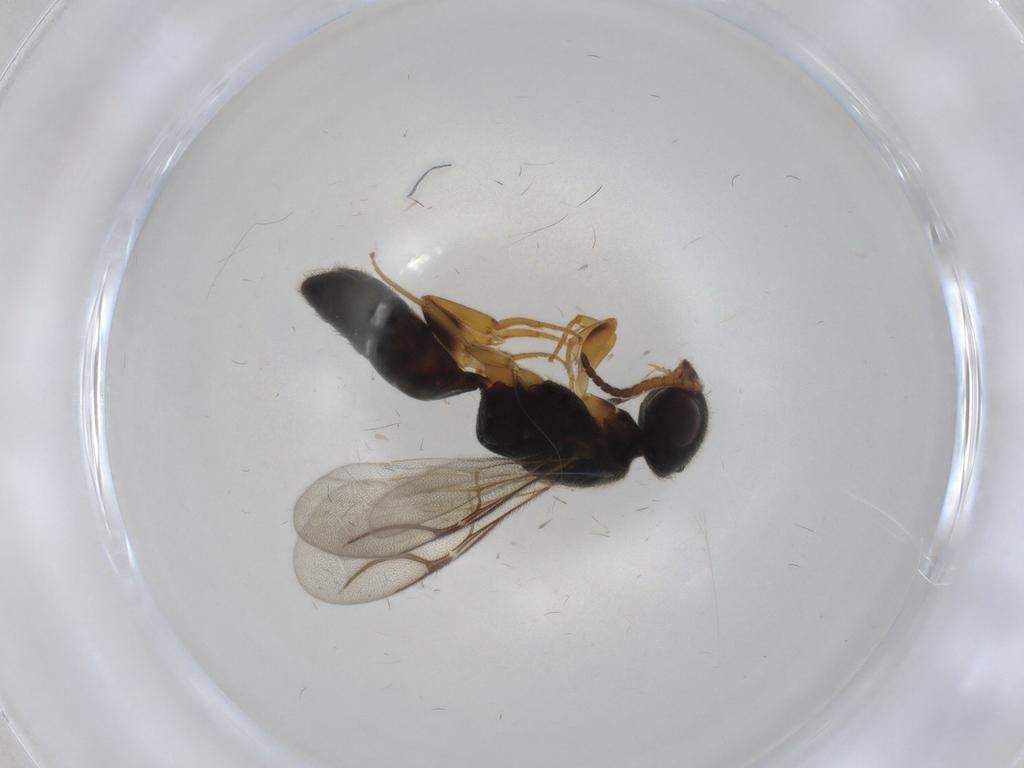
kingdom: Animalia
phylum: Arthropoda
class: Insecta
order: Hymenoptera
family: Bethylidae
